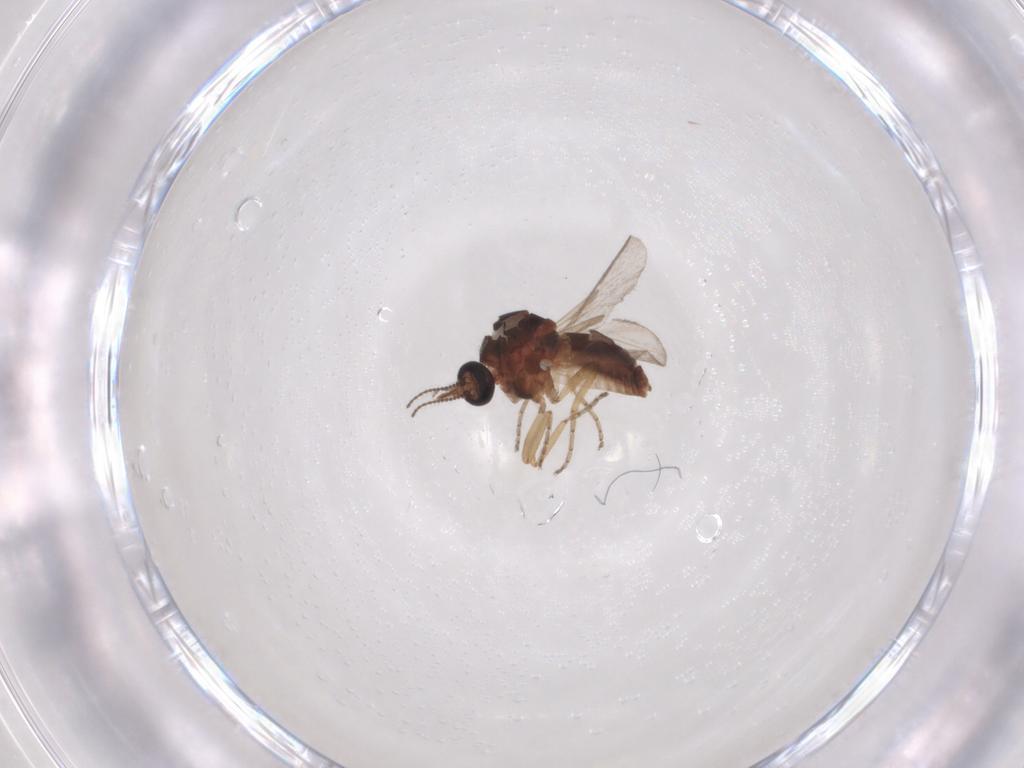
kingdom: Animalia
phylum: Arthropoda
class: Insecta
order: Diptera
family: Ceratopogonidae
